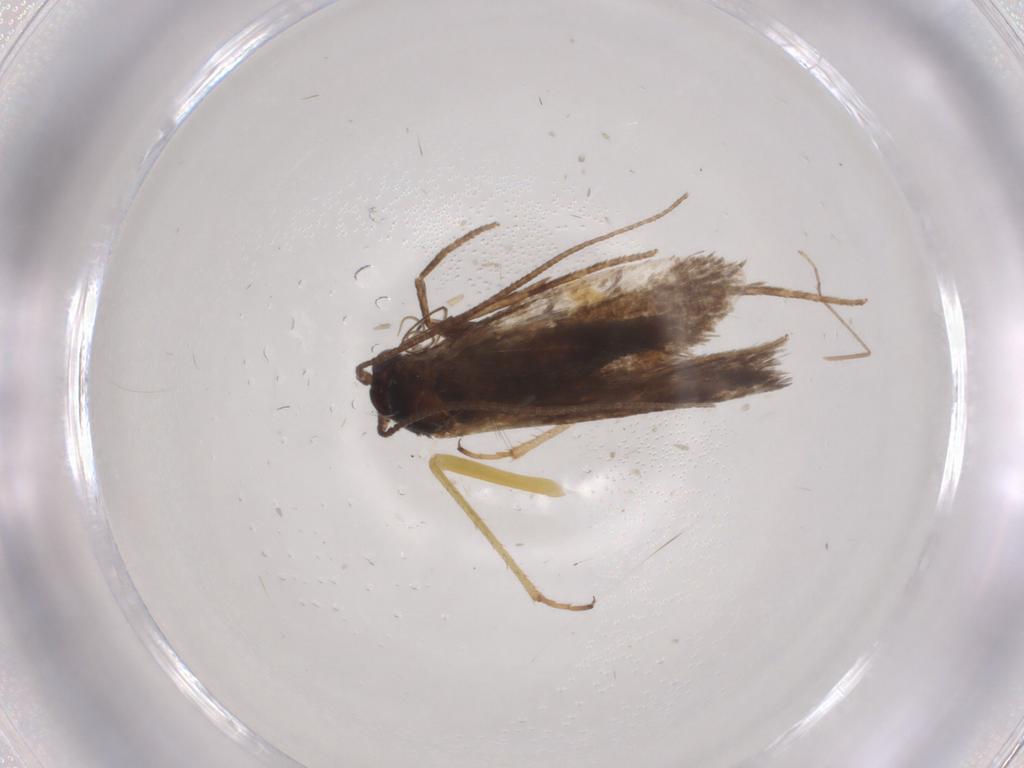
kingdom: Animalia
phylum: Arthropoda
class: Insecta
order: Lepidoptera
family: Adelidae
